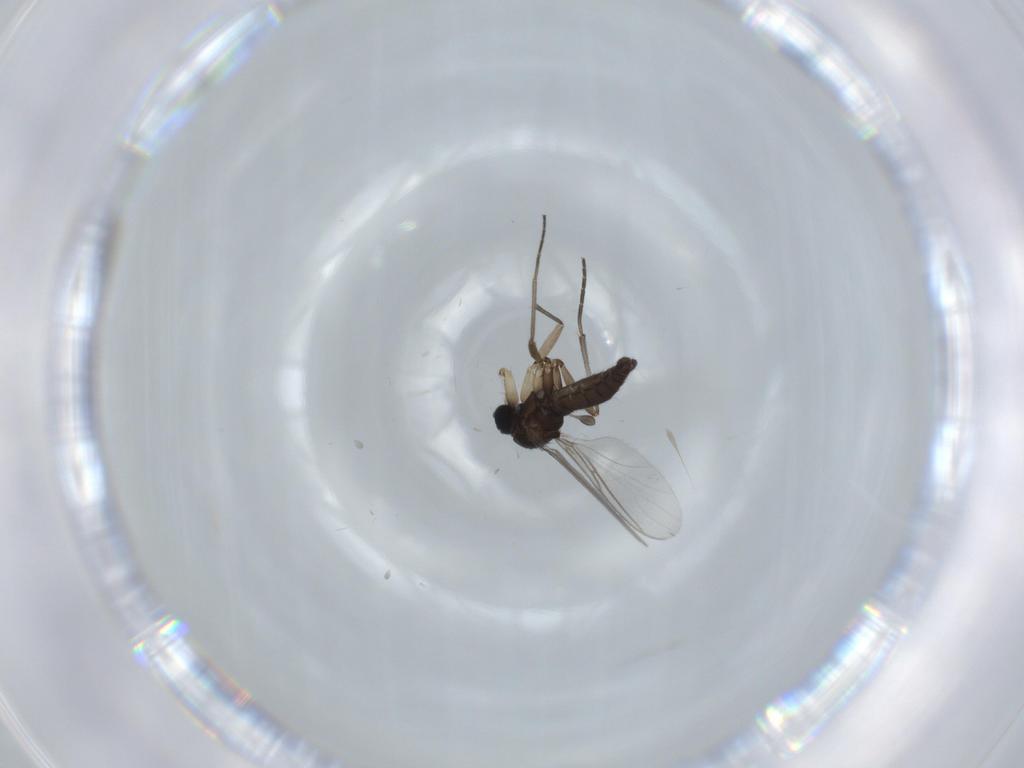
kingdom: Animalia
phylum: Arthropoda
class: Insecta
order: Diptera
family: Sciaridae
